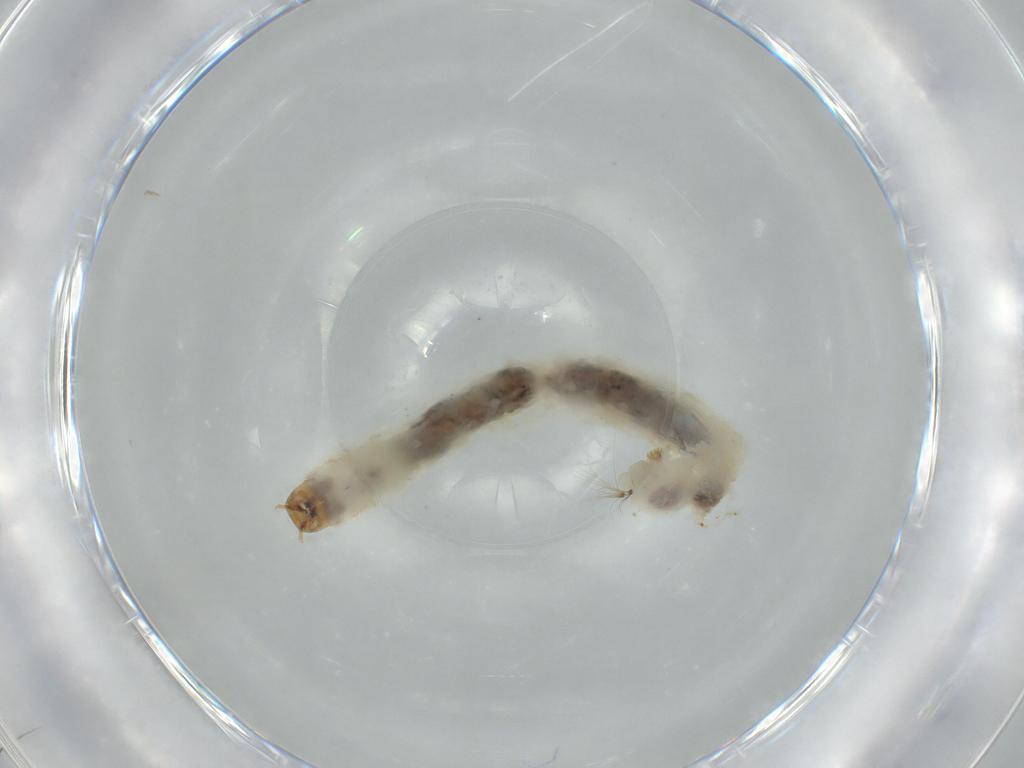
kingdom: Animalia
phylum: Arthropoda
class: Insecta
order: Diptera
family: Chironomidae
